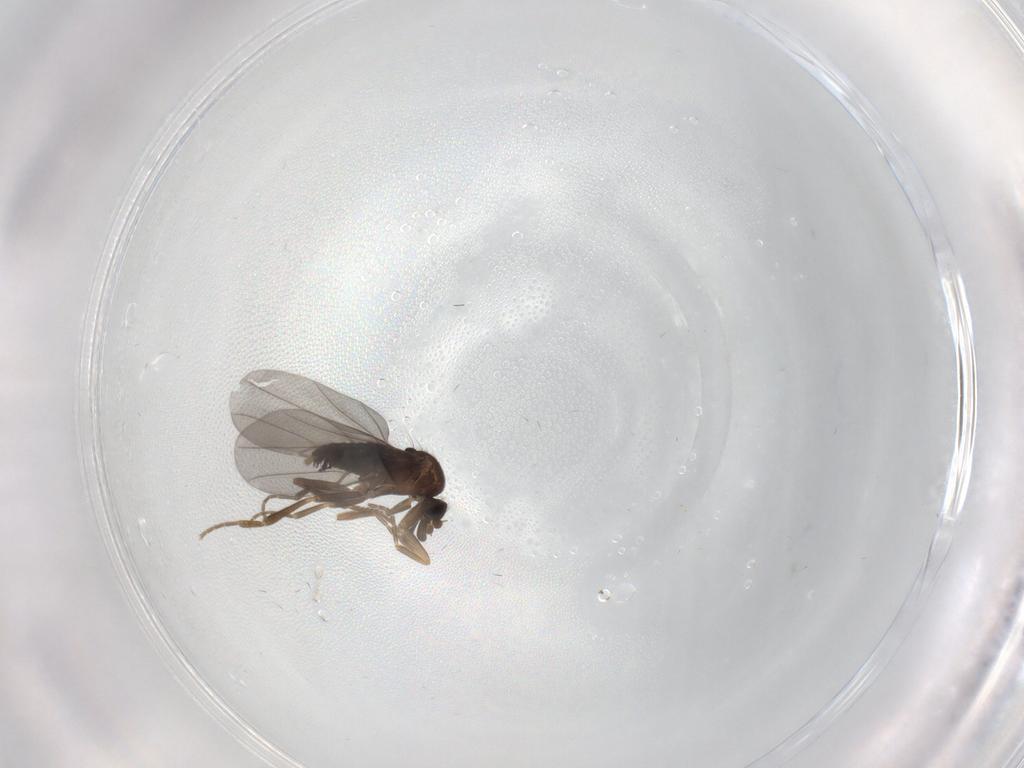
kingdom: Animalia
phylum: Arthropoda
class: Insecta
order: Diptera
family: Phoridae
